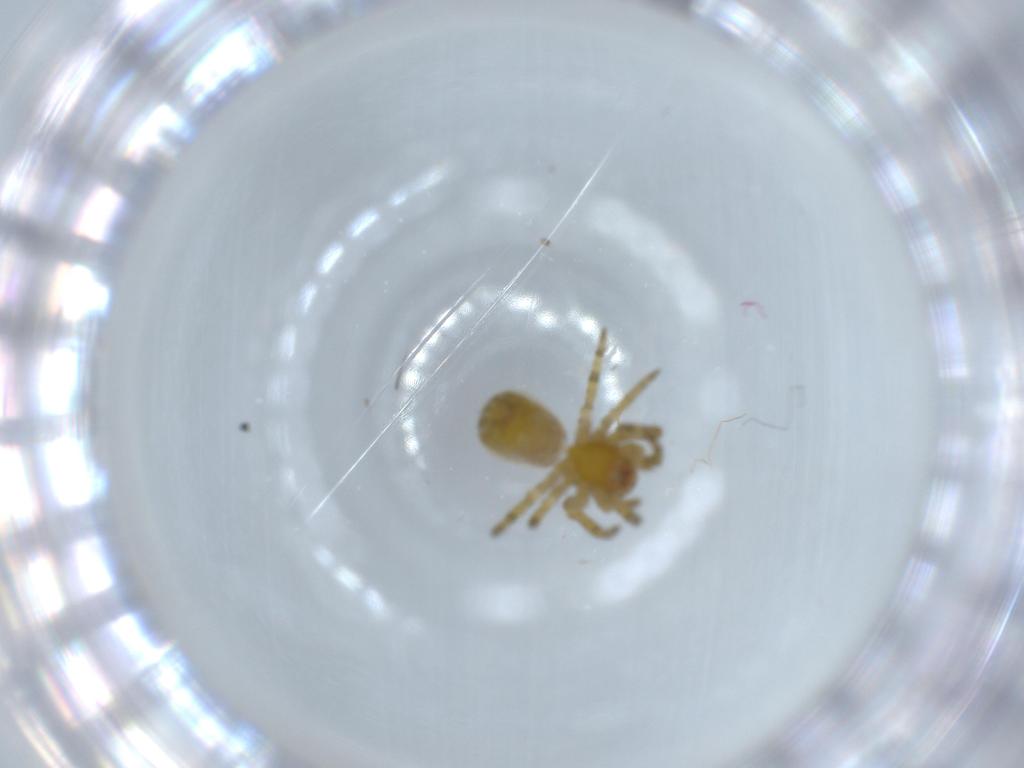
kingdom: Animalia
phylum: Arthropoda
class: Arachnida
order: Araneae
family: Araneidae
